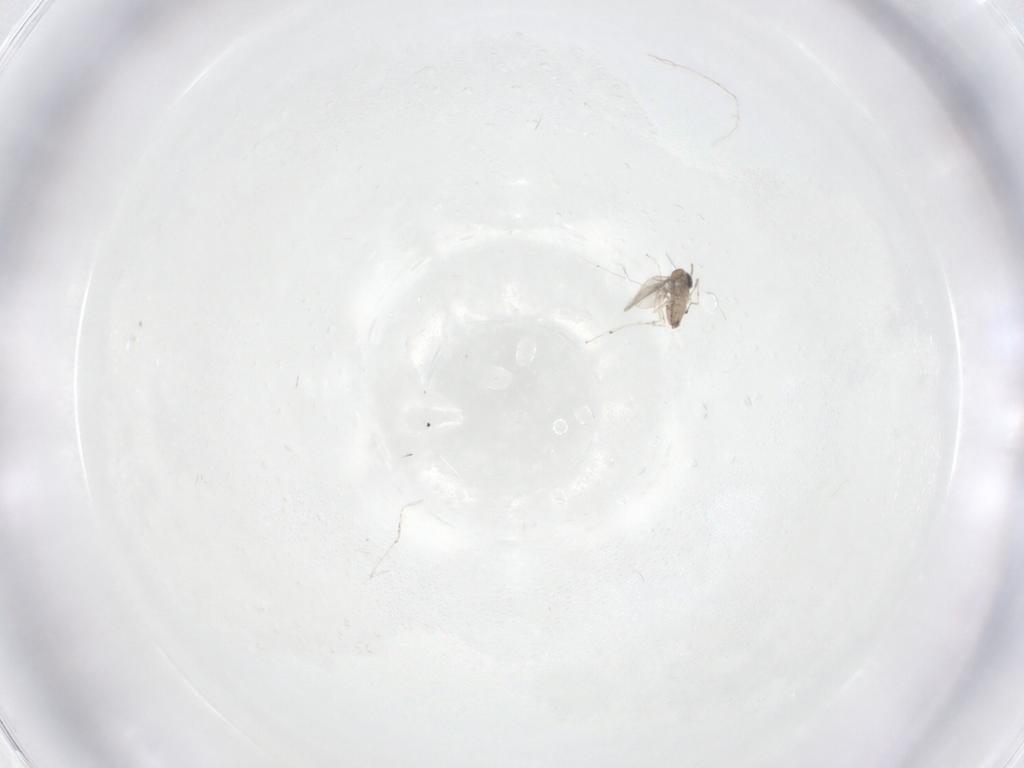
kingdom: Animalia
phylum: Arthropoda
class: Insecta
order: Diptera
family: Cecidomyiidae
